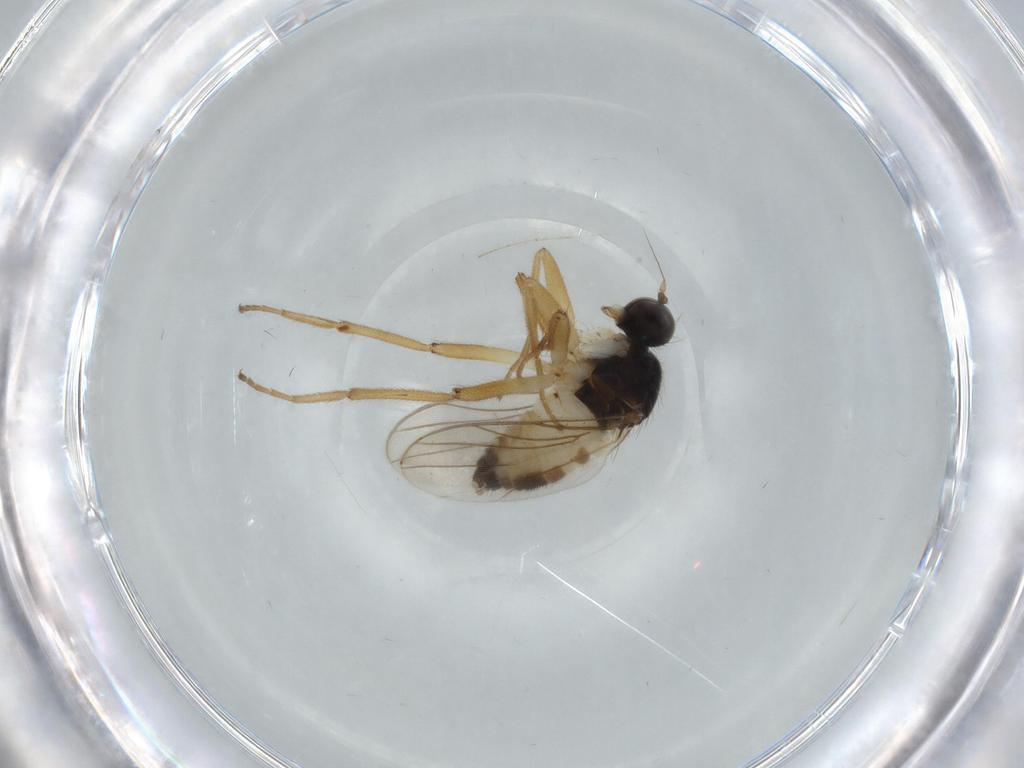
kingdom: Animalia
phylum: Arthropoda
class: Insecta
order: Diptera
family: Hybotidae
